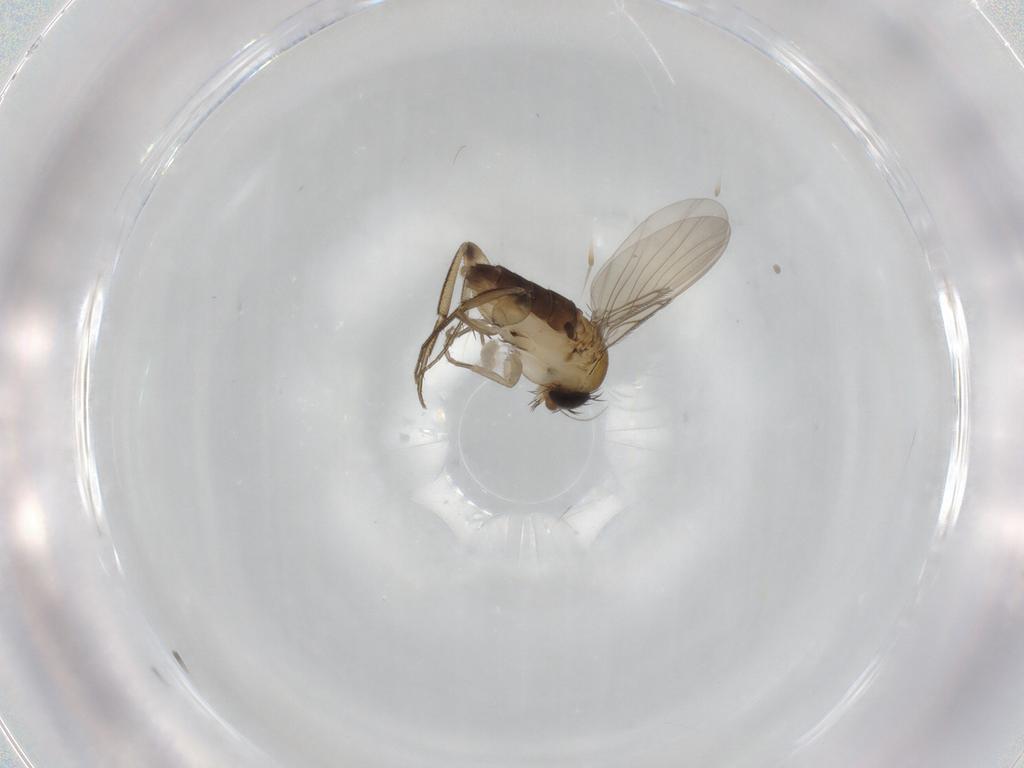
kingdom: Animalia
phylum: Arthropoda
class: Insecta
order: Diptera
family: Phoridae
